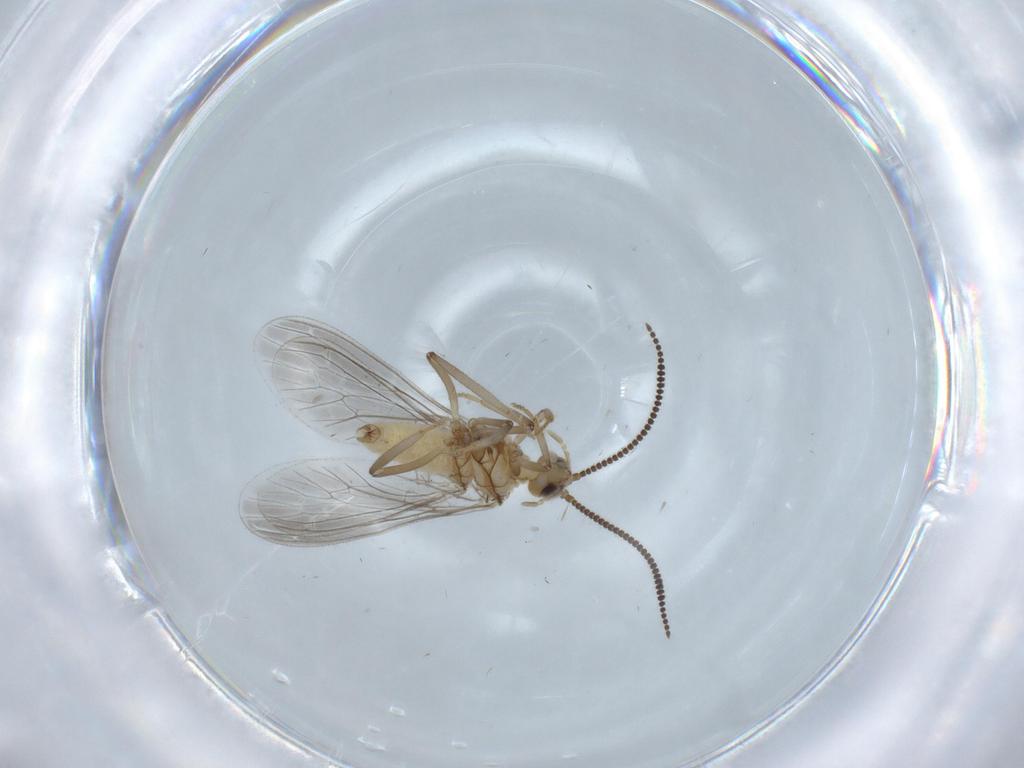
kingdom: Animalia
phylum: Arthropoda
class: Insecta
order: Neuroptera
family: Coniopterygidae
